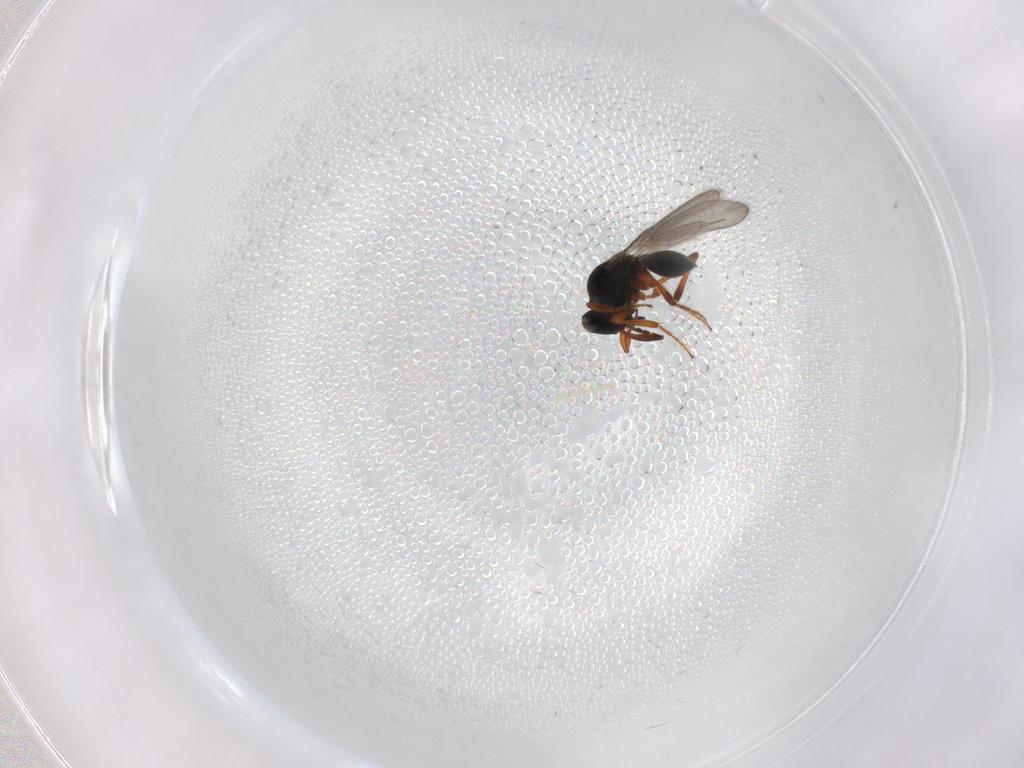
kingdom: Animalia
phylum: Arthropoda
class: Insecta
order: Hymenoptera
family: Platygastridae
